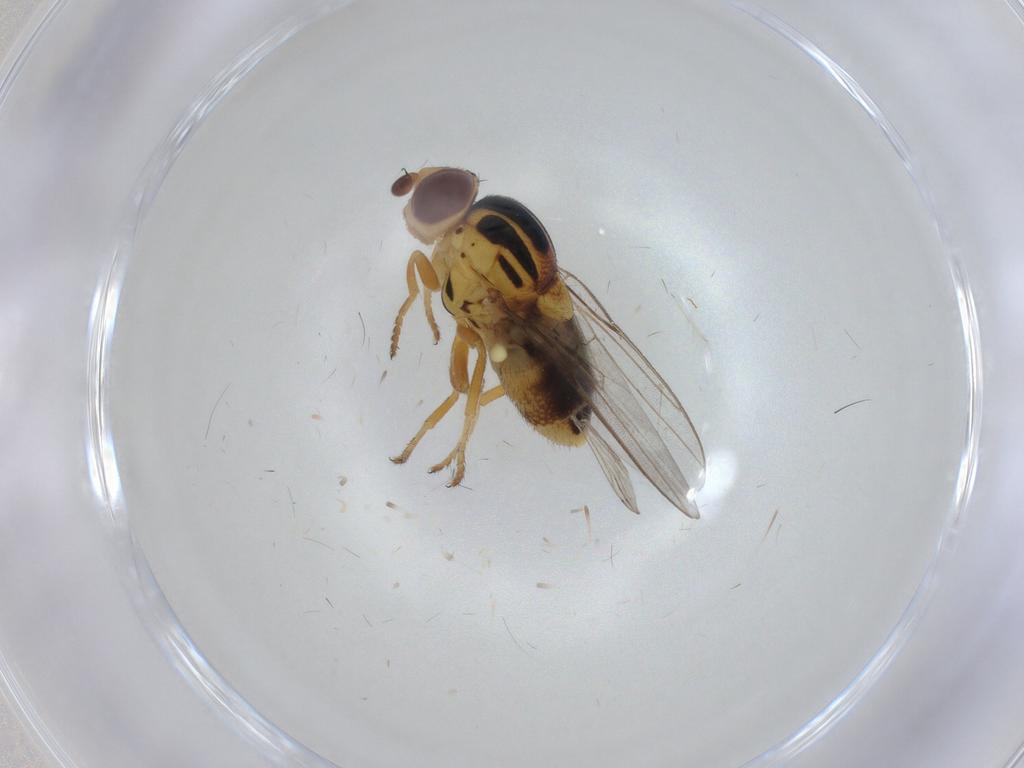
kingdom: Animalia
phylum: Arthropoda
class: Insecta
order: Diptera
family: Chloropidae
